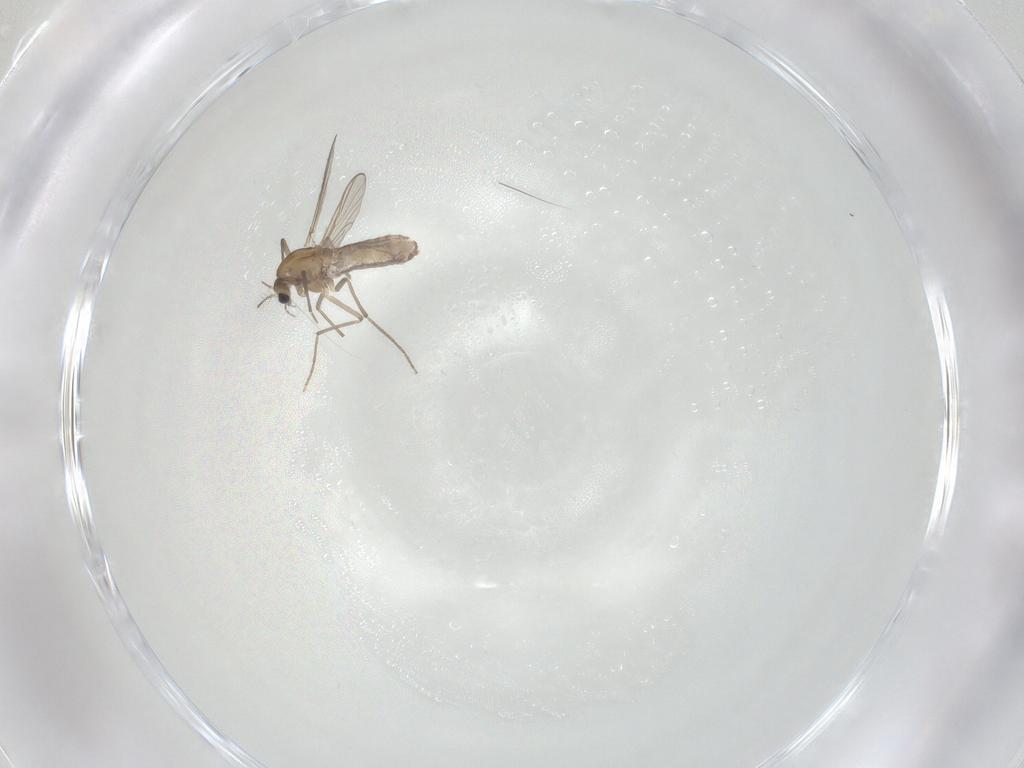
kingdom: Animalia
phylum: Arthropoda
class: Insecta
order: Diptera
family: Chironomidae
